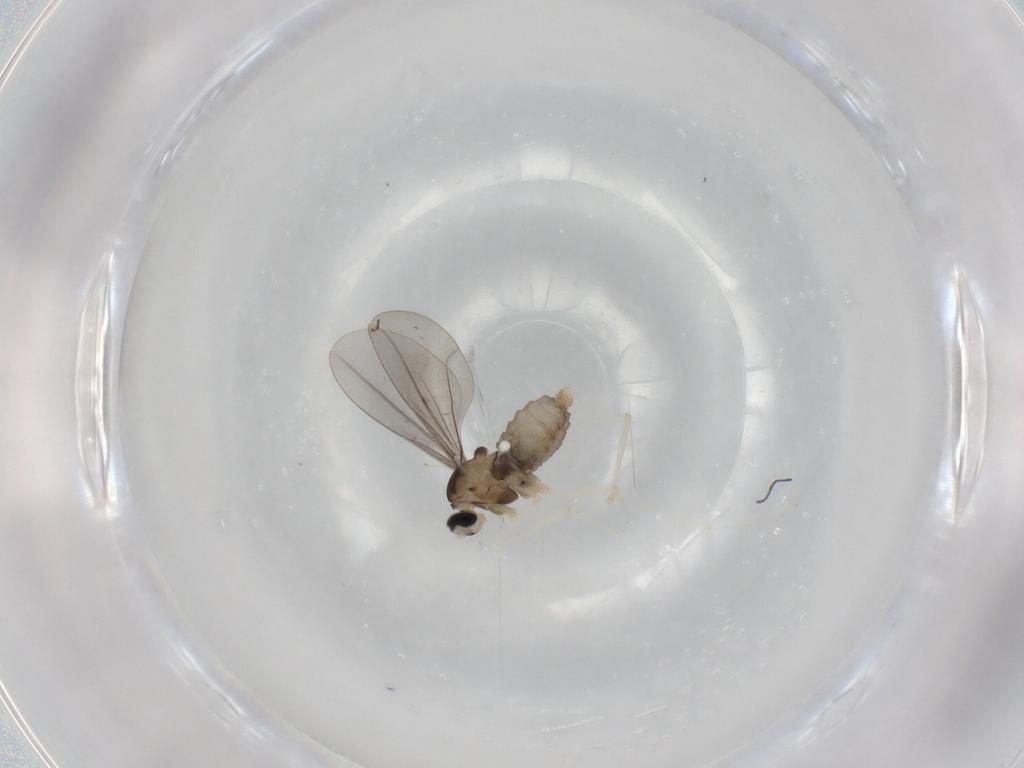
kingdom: Animalia
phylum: Arthropoda
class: Insecta
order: Diptera
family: Cecidomyiidae
